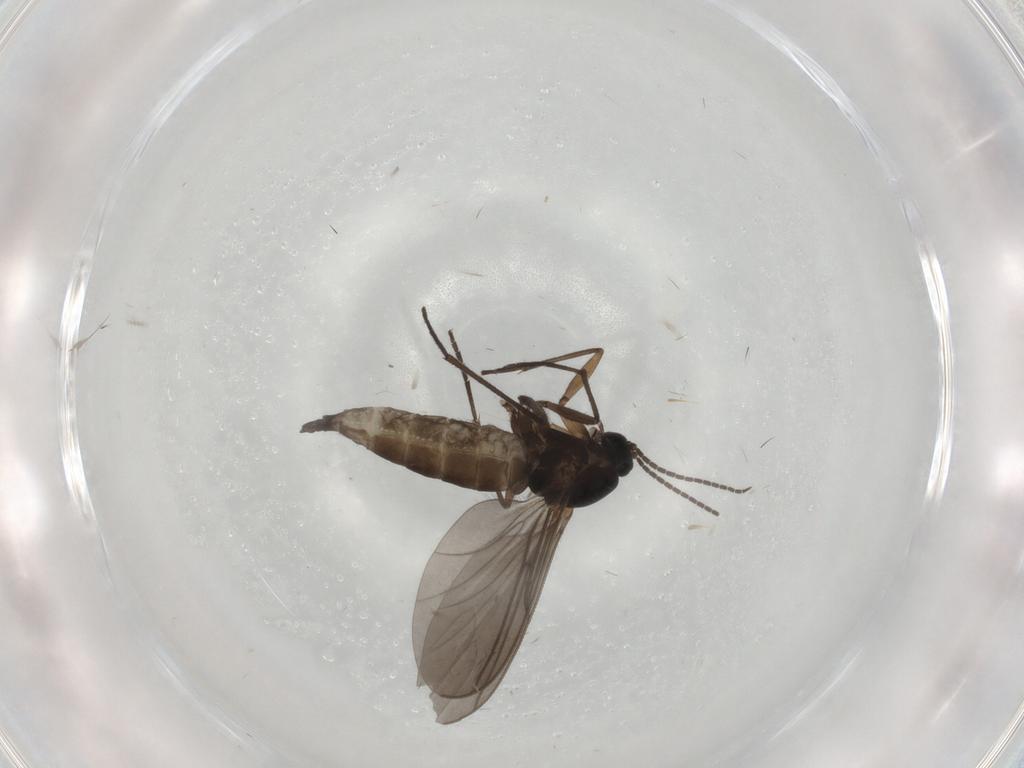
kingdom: Animalia
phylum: Arthropoda
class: Insecta
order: Diptera
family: Sciaridae
